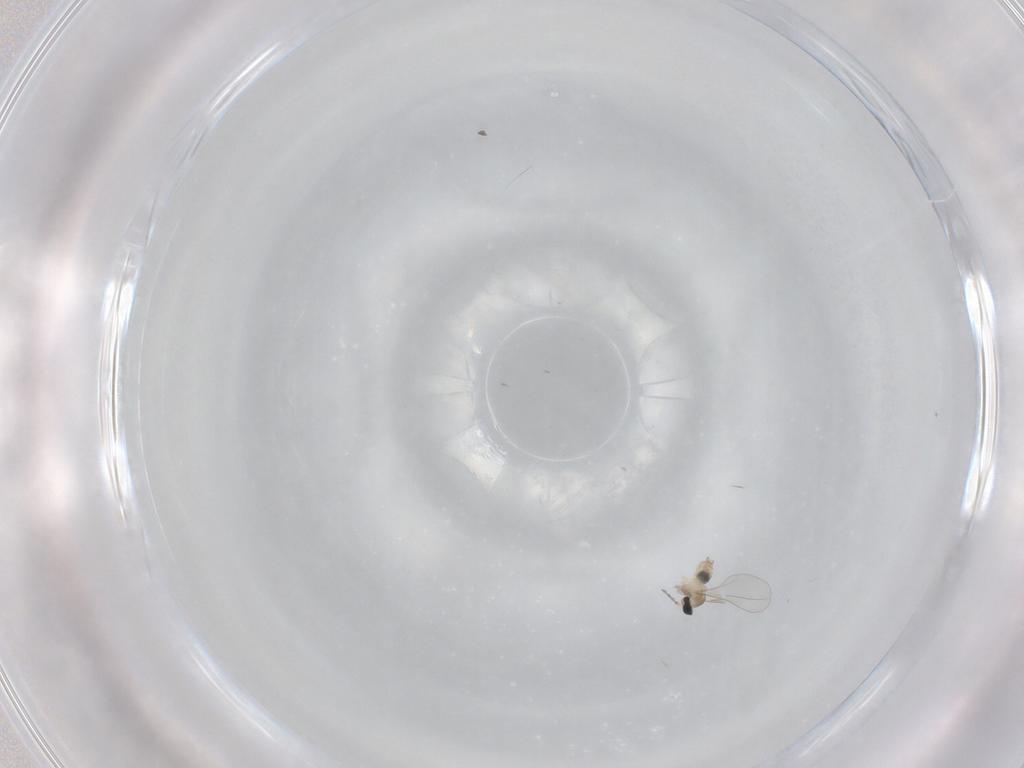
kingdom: Animalia
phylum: Arthropoda
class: Insecta
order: Diptera
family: Cecidomyiidae
